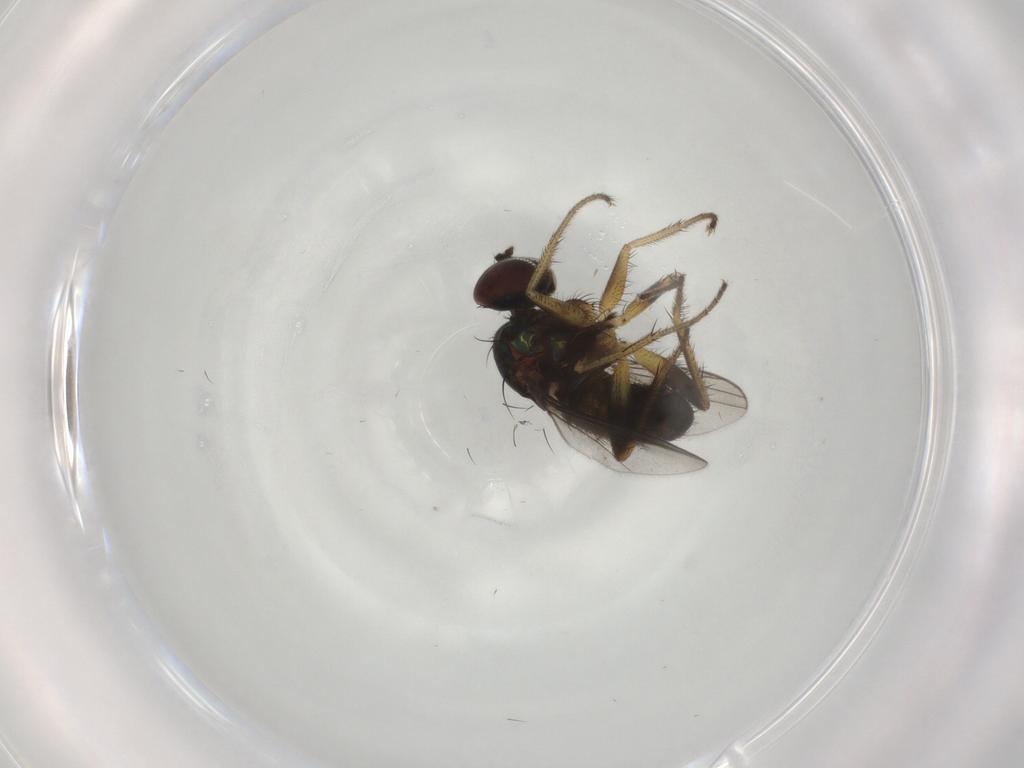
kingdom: Animalia
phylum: Arthropoda
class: Insecta
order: Diptera
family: Dolichopodidae
